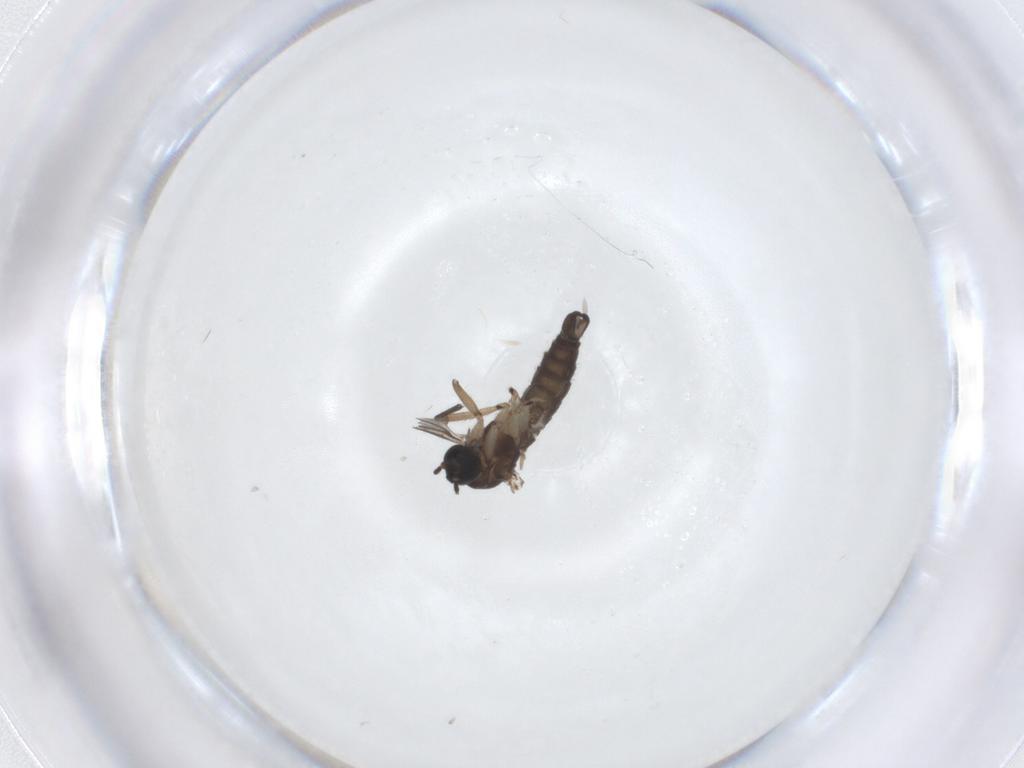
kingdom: Animalia
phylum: Arthropoda
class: Insecta
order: Diptera
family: Sciaridae
